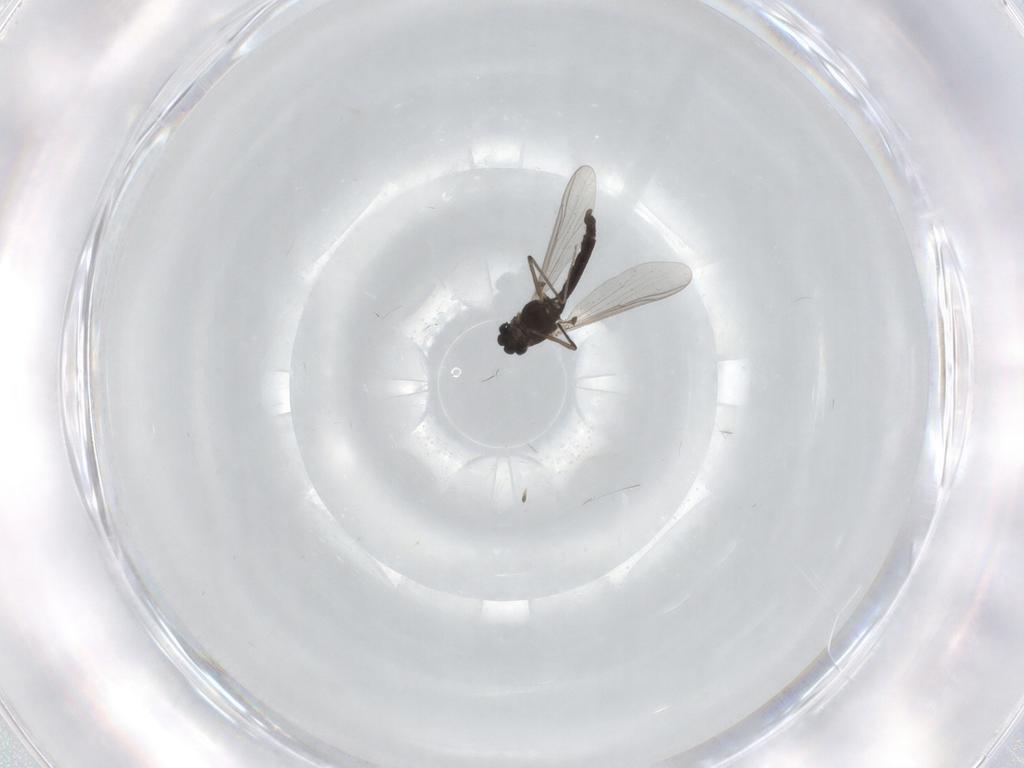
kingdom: Animalia
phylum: Arthropoda
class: Insecta
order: Diptera
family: Chironomidae
